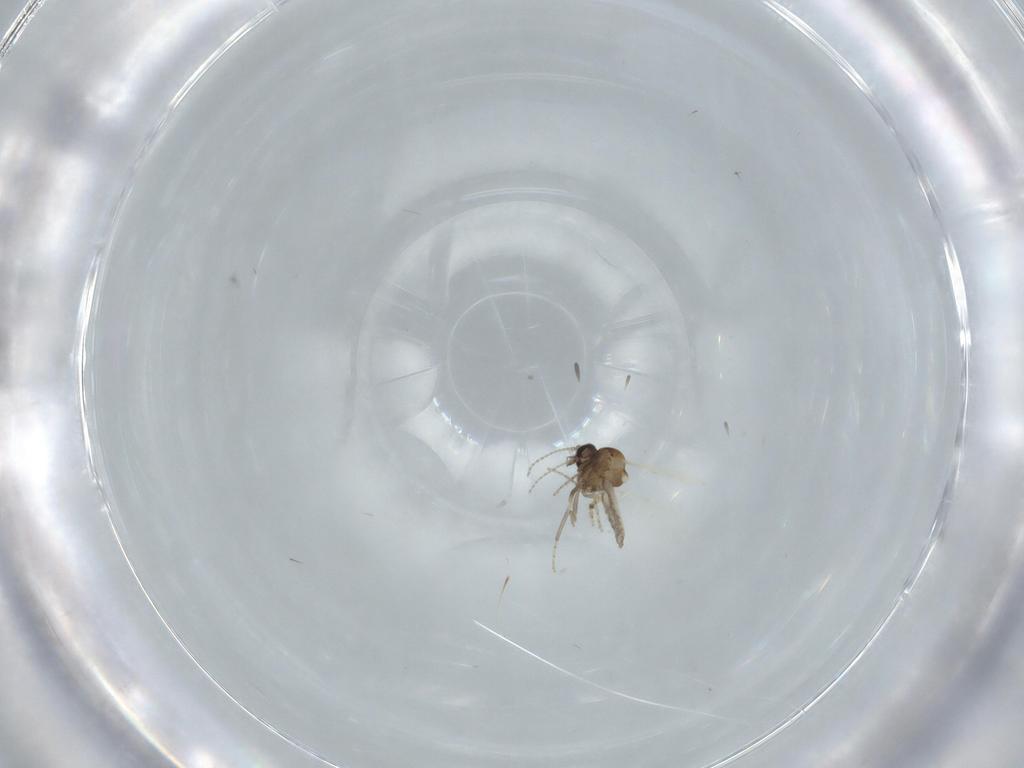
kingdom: Animalia
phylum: Arthropoda
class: Insecta
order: Diptera
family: Ceratopogonidae
